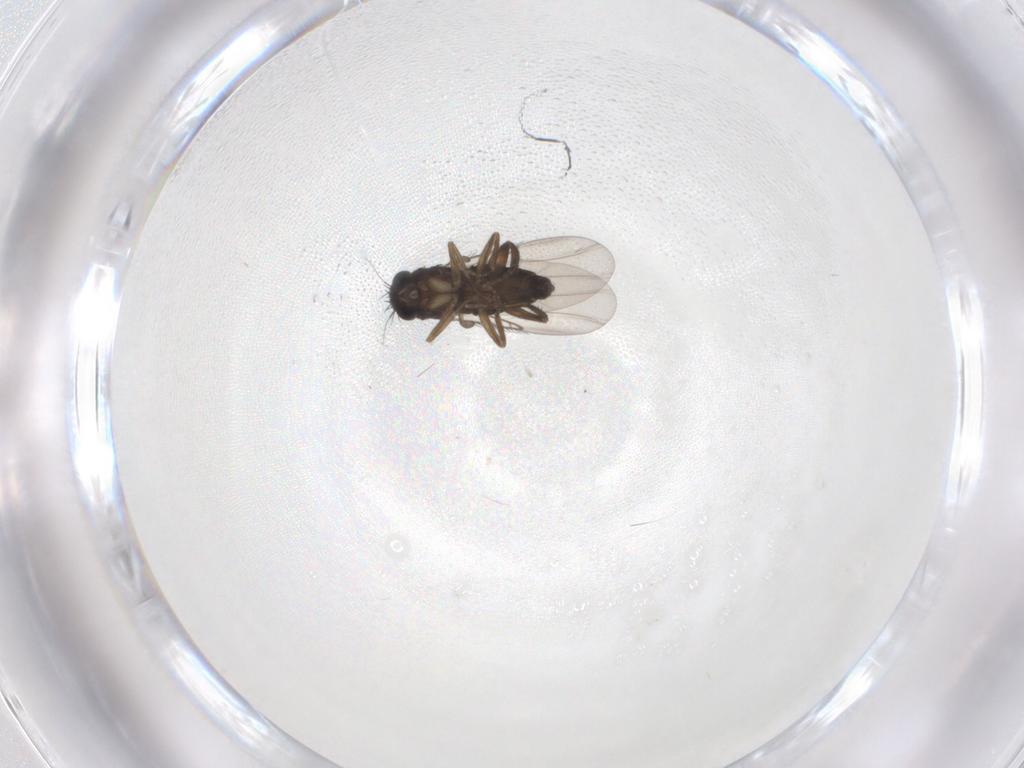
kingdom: Animalia
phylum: Arthropoda
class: Insecta
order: Diptera
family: Phoridae
